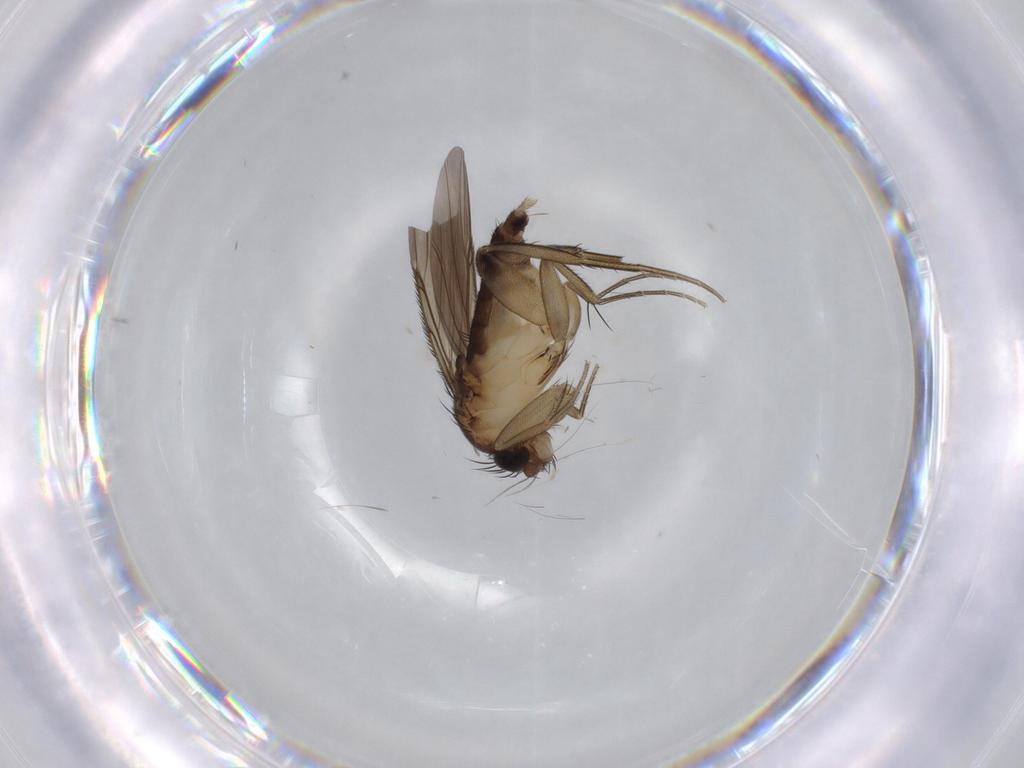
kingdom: Animalia
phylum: Arthropoda
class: Insecta
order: Diptera
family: Phoridae
